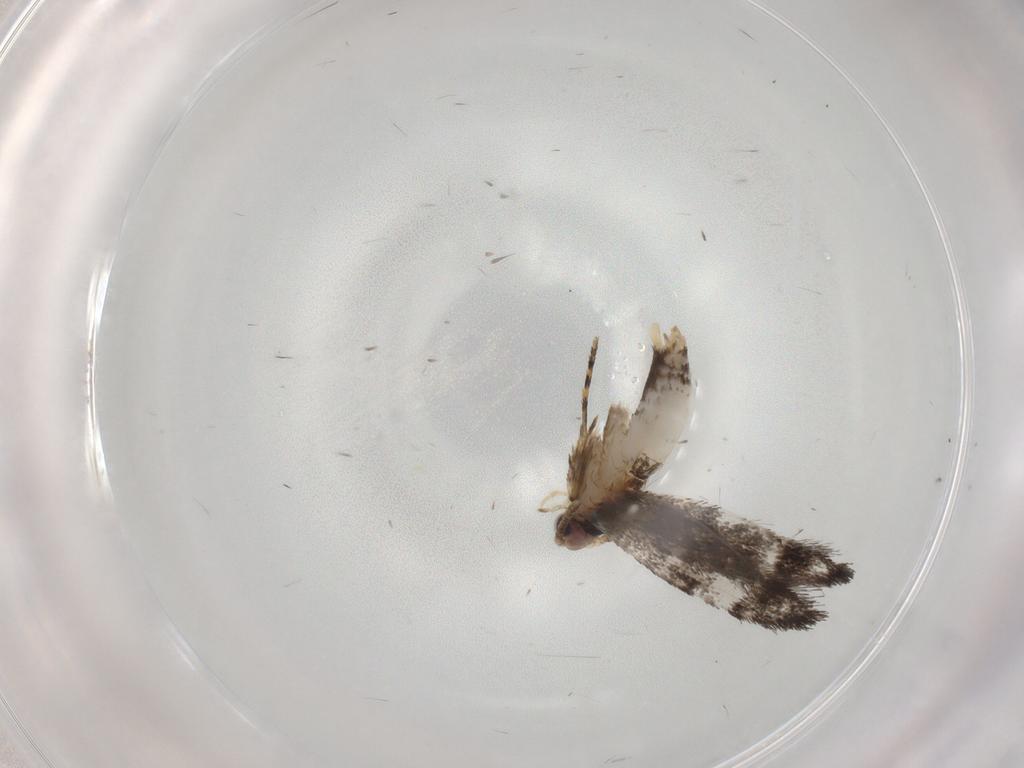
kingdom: Animalia
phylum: Arthropoda
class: Insecta
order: Lepidoptera
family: Tineidae
